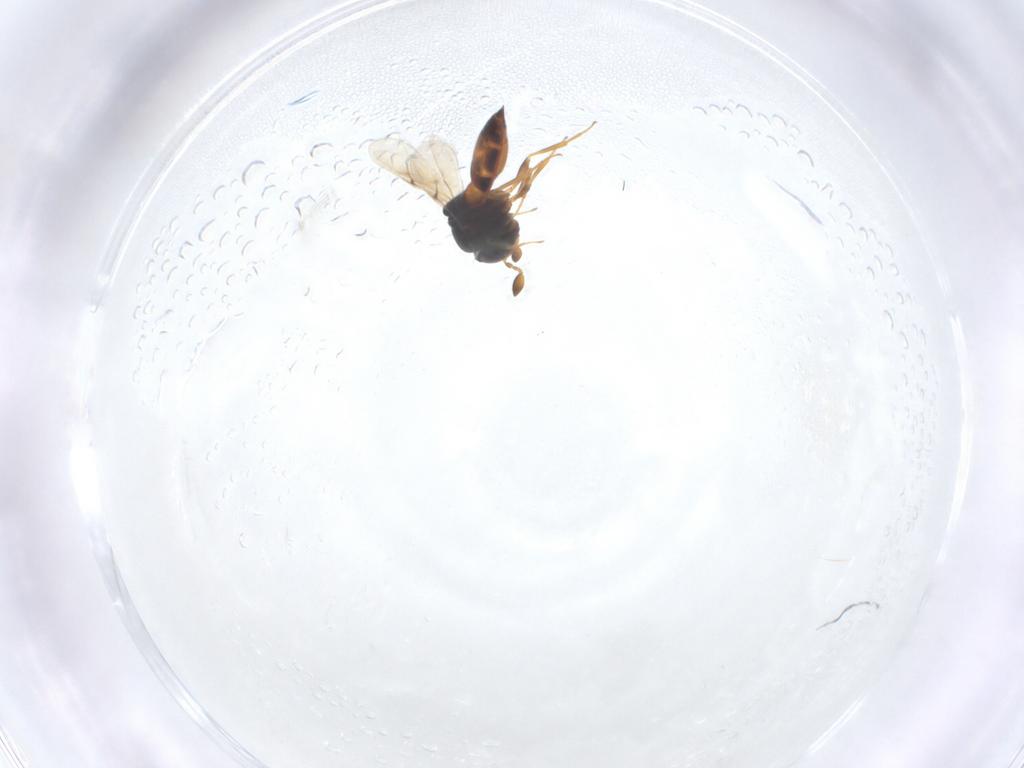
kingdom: Animalia
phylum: Arthropoda
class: Insecta
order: Hymenoptera
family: Scelionidae
